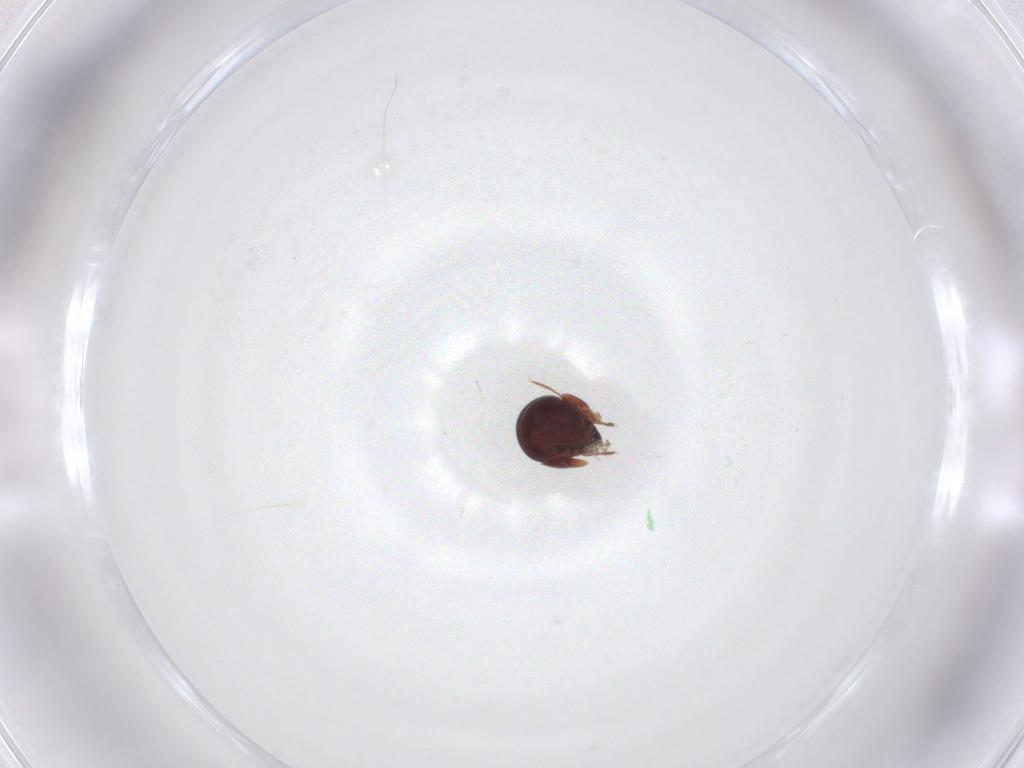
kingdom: Animalia
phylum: Arthropoda
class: Arachnida
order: Sarcoptiformes
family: Galumnidae
